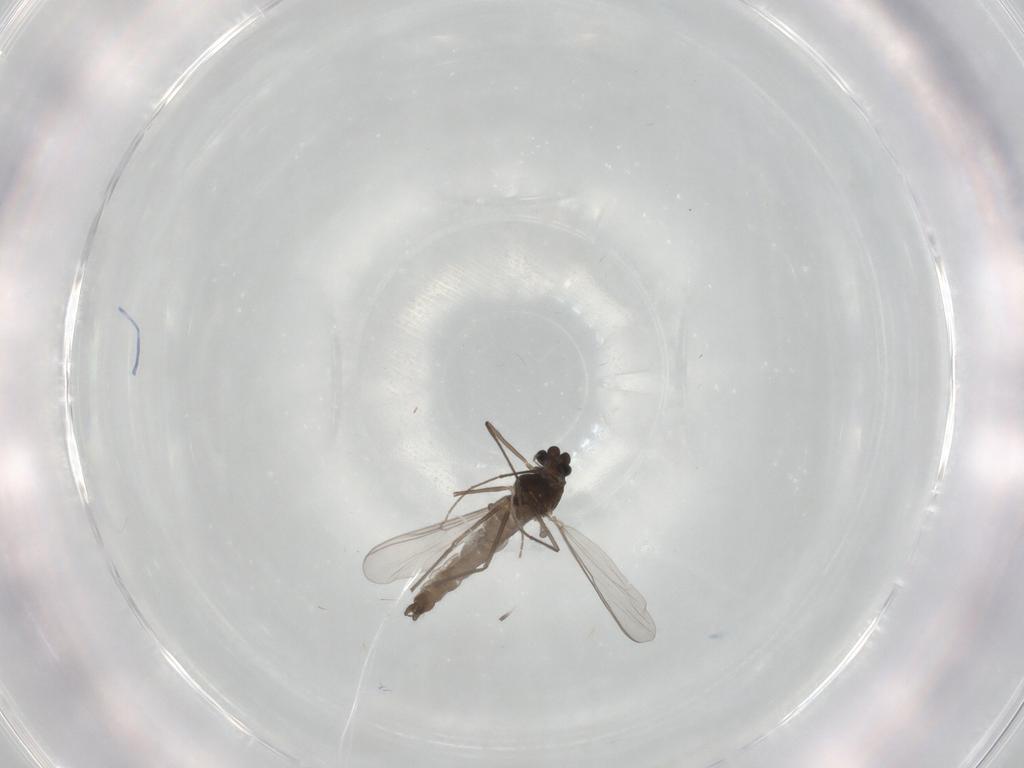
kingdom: Animalia
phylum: Arthropoda
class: Insecta
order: Diptera
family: Chironomidae
